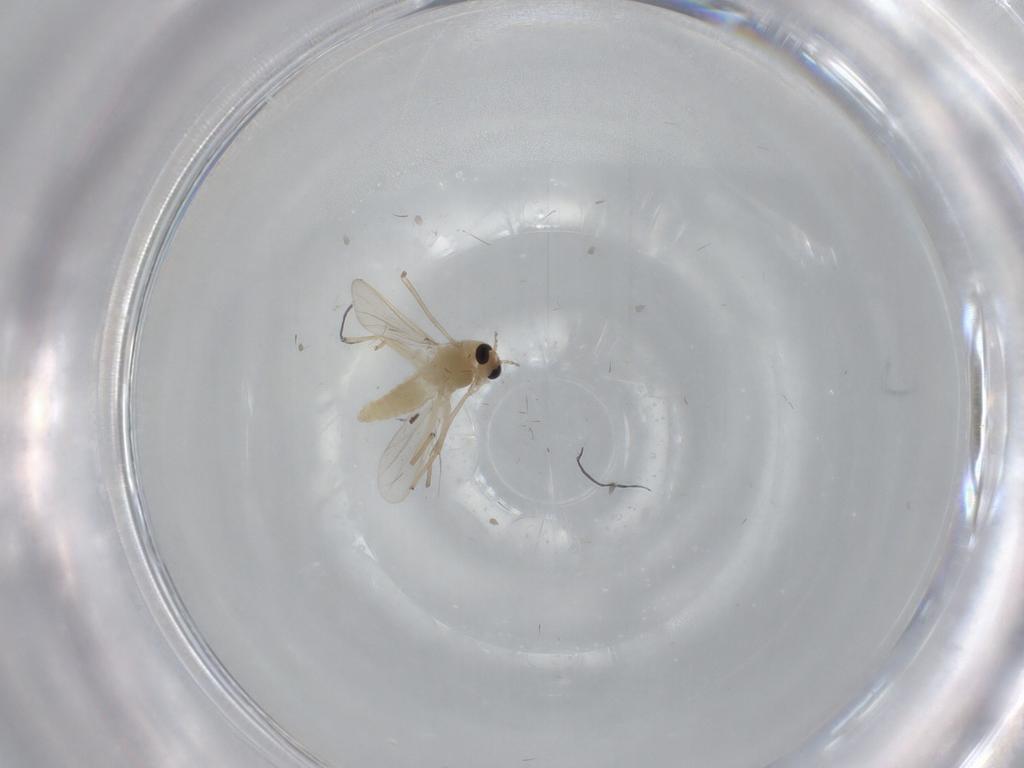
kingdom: Animalia
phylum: Arthropoda
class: Insecta
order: Diptera
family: Chironomidae
